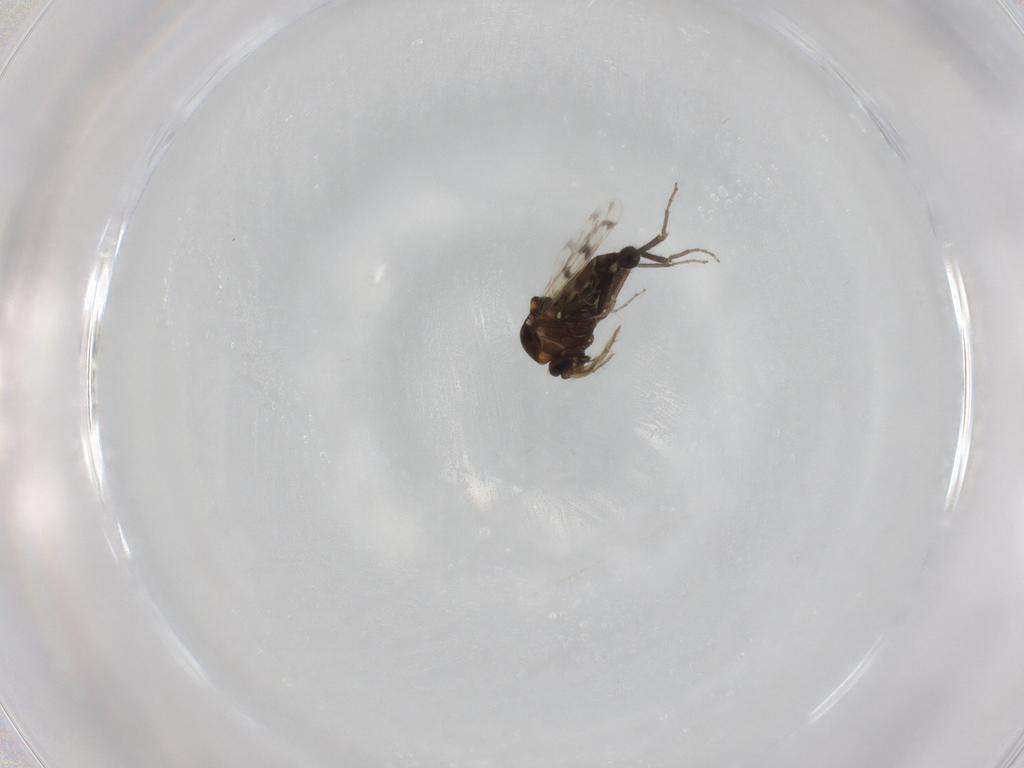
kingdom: Animalia
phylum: Arthropoda
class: Insecta
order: Diptera
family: Ceratopogonidae
